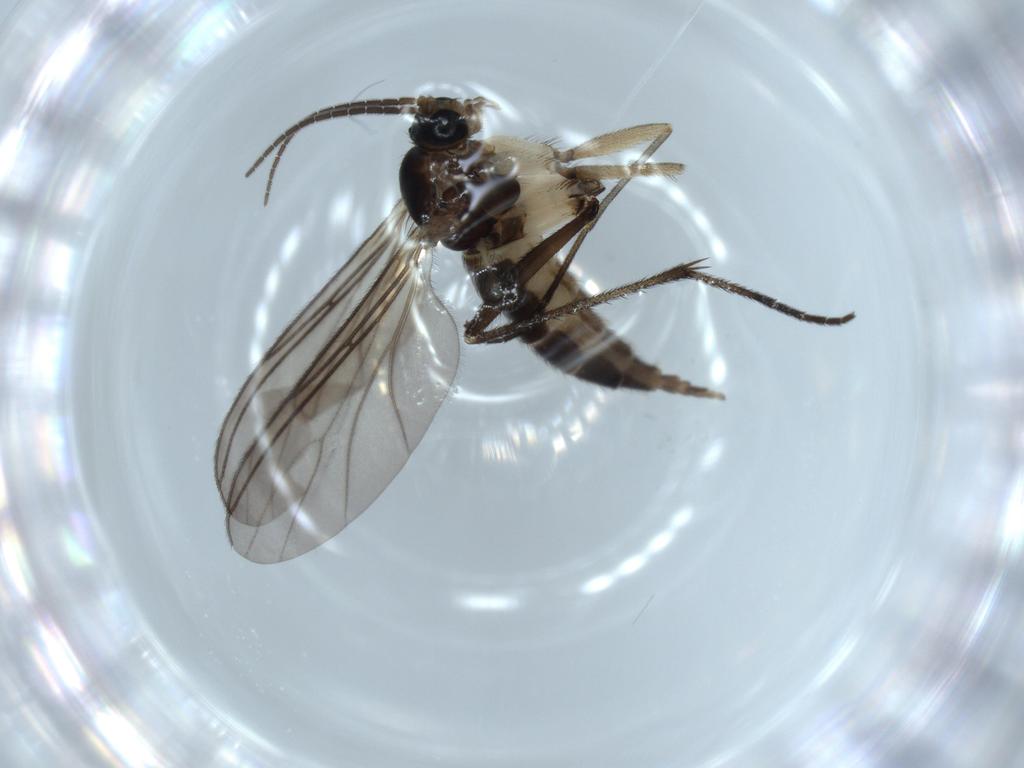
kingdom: Animalia
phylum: Arthropoda
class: Insecta
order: Diptera
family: Sciaridae
